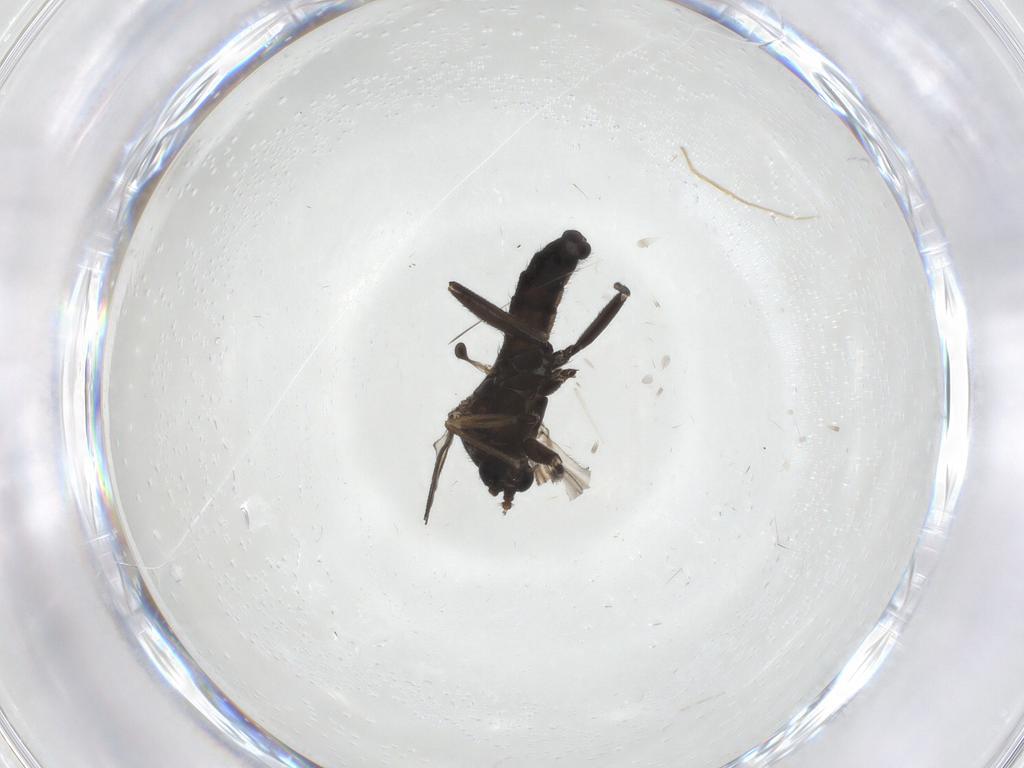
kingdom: Animalia
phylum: Arthropoda
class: Insecta
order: Diptera
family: Sciaridae
